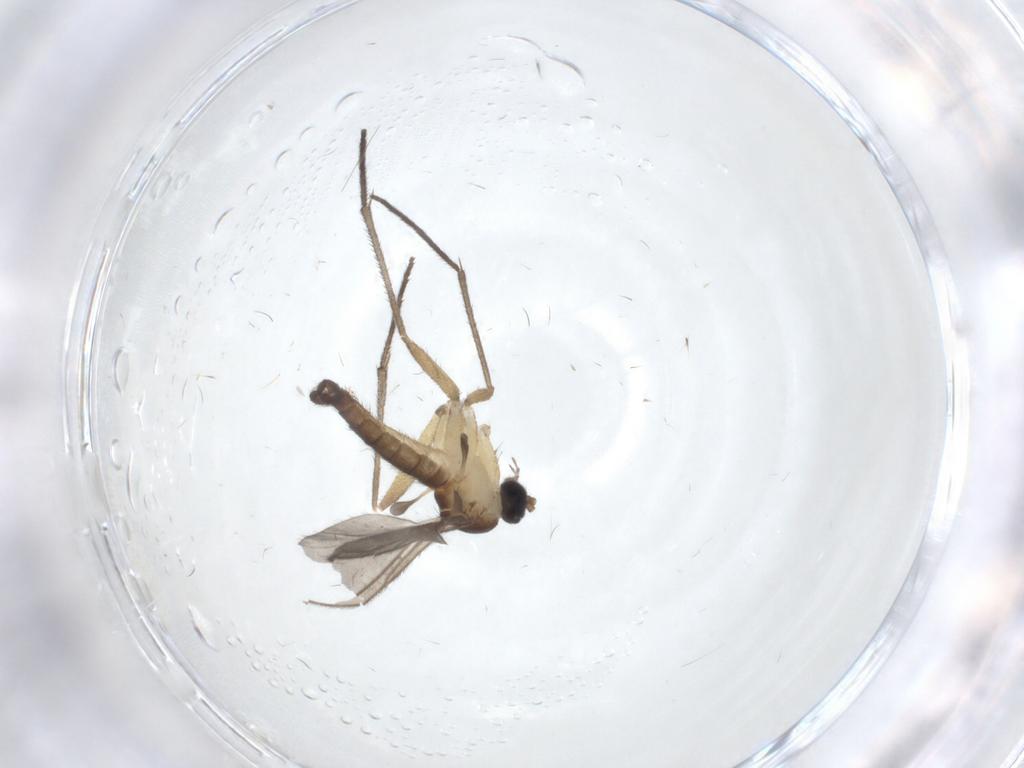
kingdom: Animalia
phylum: Arthropoda
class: Insecta
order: Diptera
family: Sciaridae
